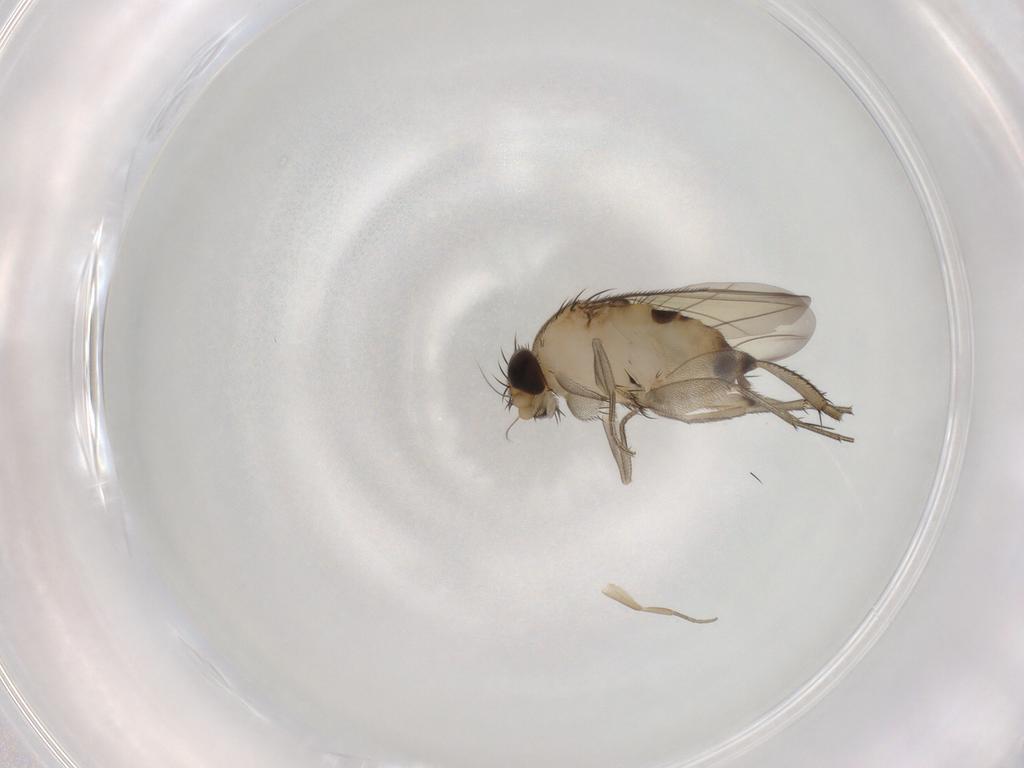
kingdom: Animalia
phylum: Arthropoda
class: Insecta
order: Diptera
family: Phoridae
